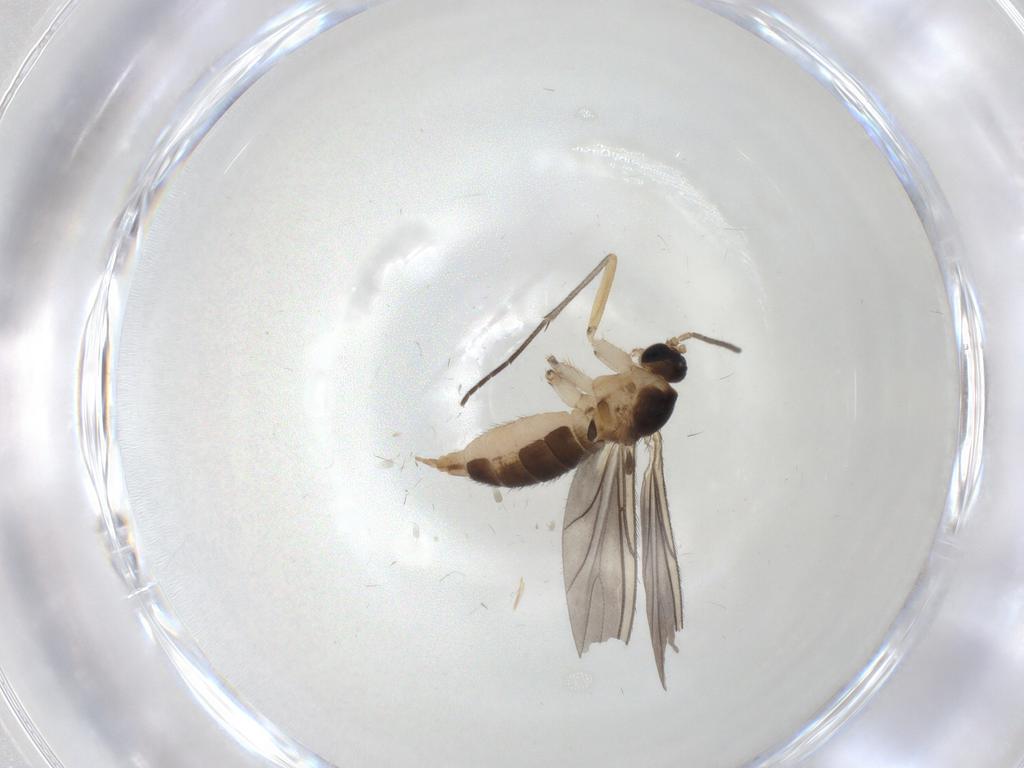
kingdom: Animalia
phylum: Arthropoda
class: Insecta
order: Diptera
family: Sciaridae
